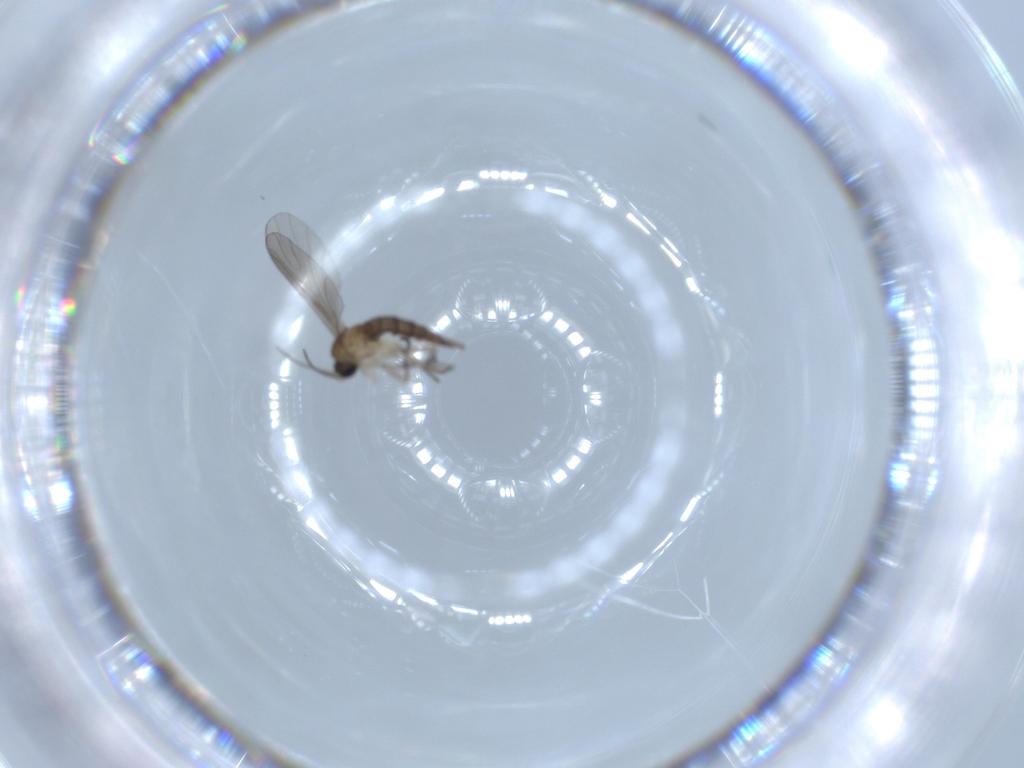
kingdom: Animalia
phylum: Arthropoda
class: Insecta
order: Diptera
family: Sciaridae
